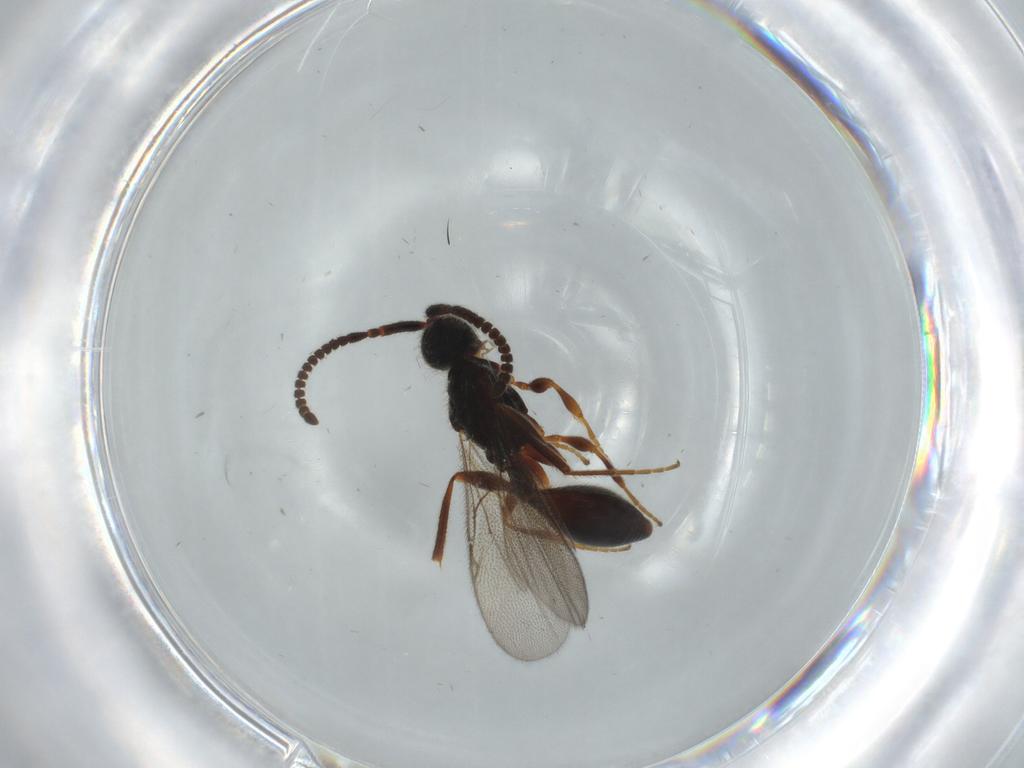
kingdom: Animalia
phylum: Arthropoda
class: Insecta
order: Hymenoptera
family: Diapriidae
